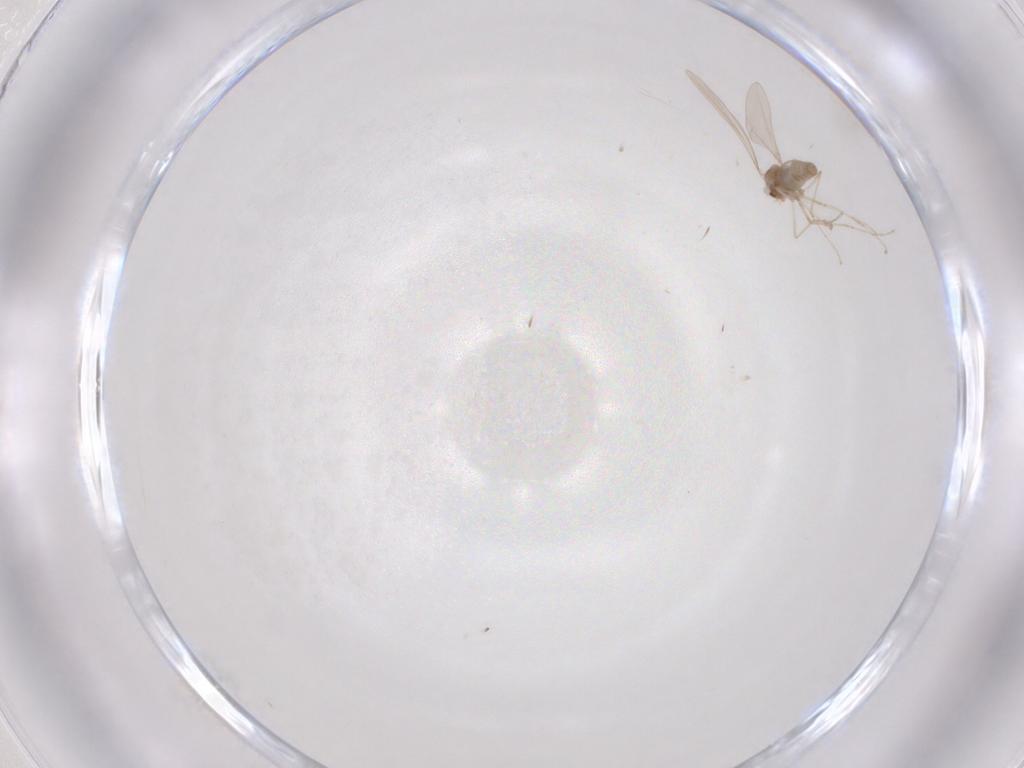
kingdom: Animalia
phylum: Arthropoda
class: Insecta
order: Diptera
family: Cecidomyiidae
